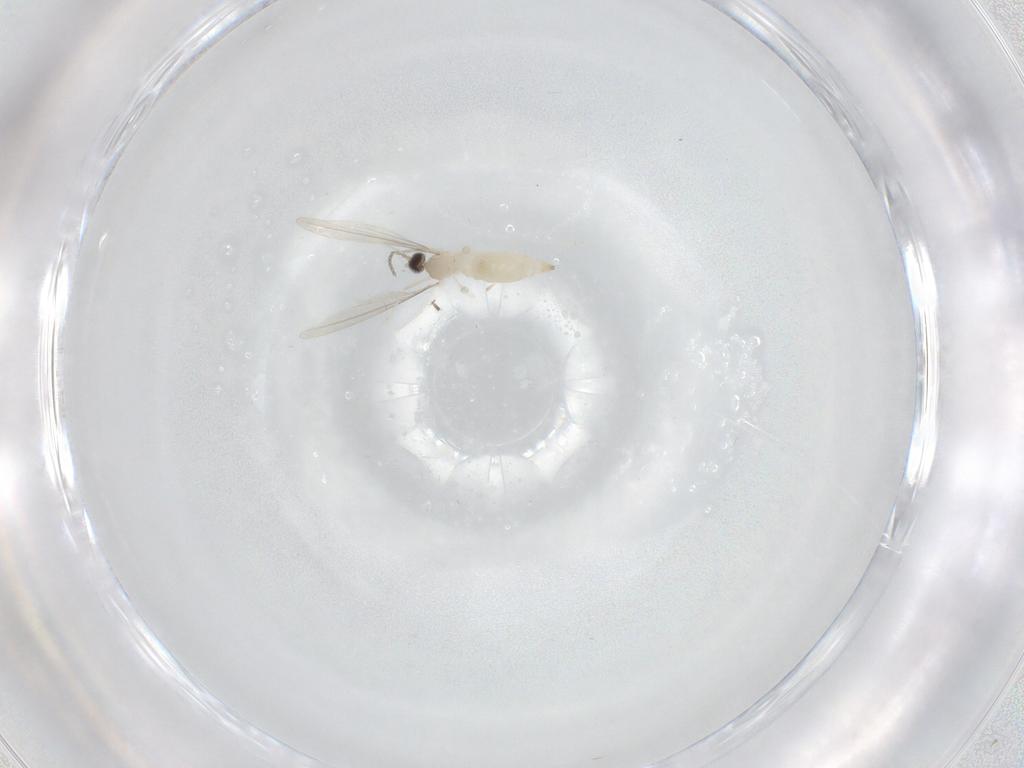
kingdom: Animalia
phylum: Arthropoda
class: Insecta
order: Diptera
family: Cecidomyiidae
